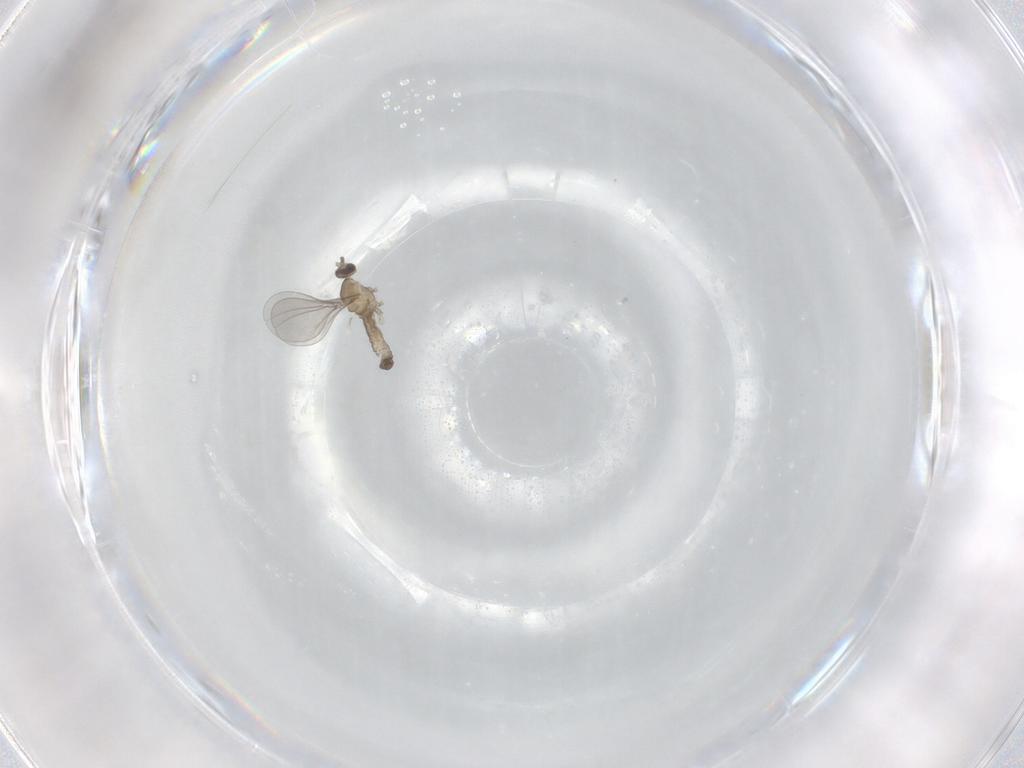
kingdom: Animalia
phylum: Arthropoda
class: Insecta
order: Diptera
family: Cecidomyiidae
